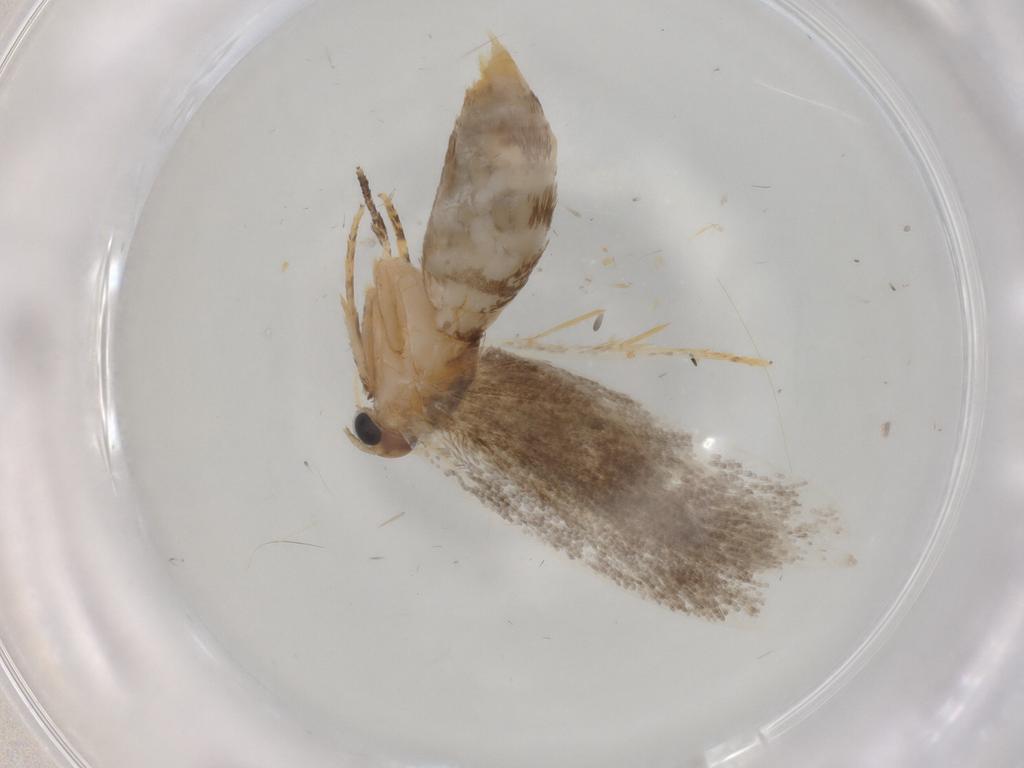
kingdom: Animalia
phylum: Arthropoda
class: Insecta
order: Lepidoptera
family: Oecophoridae
